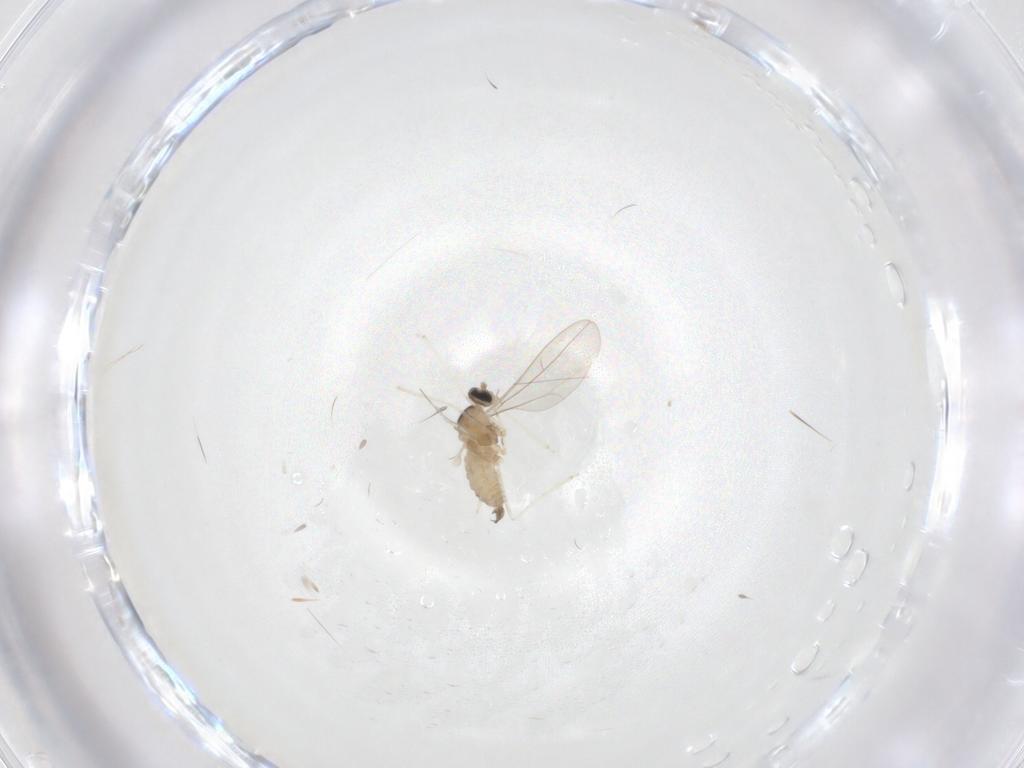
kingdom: Animalia
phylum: Arthropoda
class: Insecta
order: Diptera
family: Cecidomyiidae
